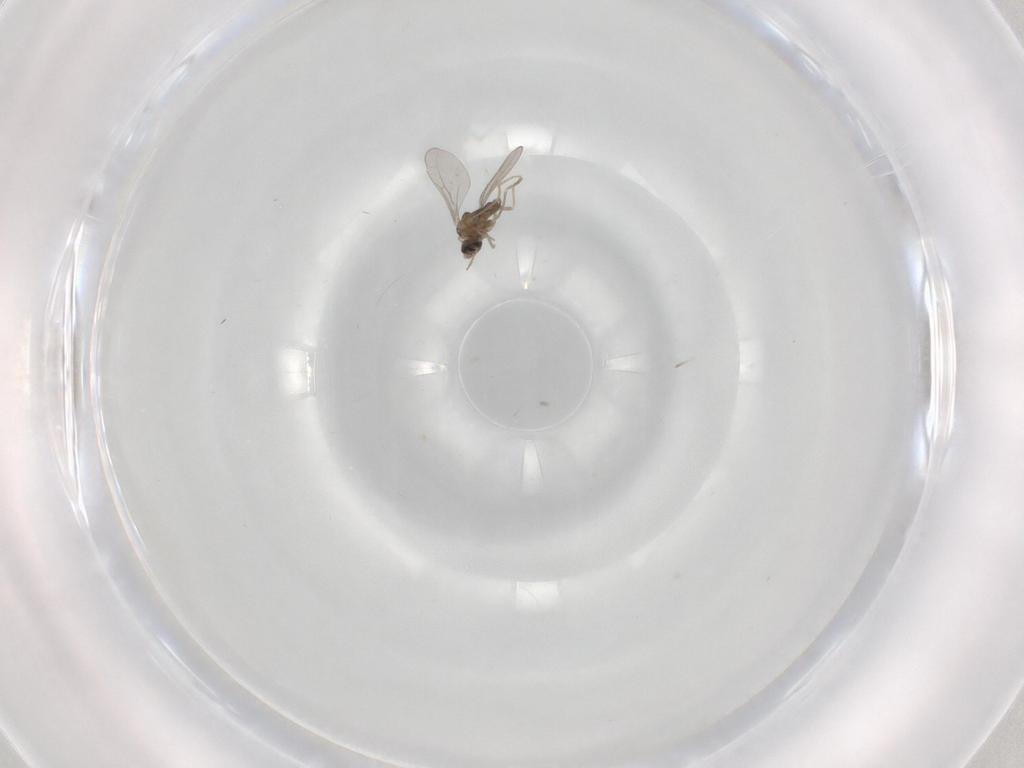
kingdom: Animalia
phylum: Arthropoda
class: Insecta
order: Diptera
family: Cecidomyiidae
